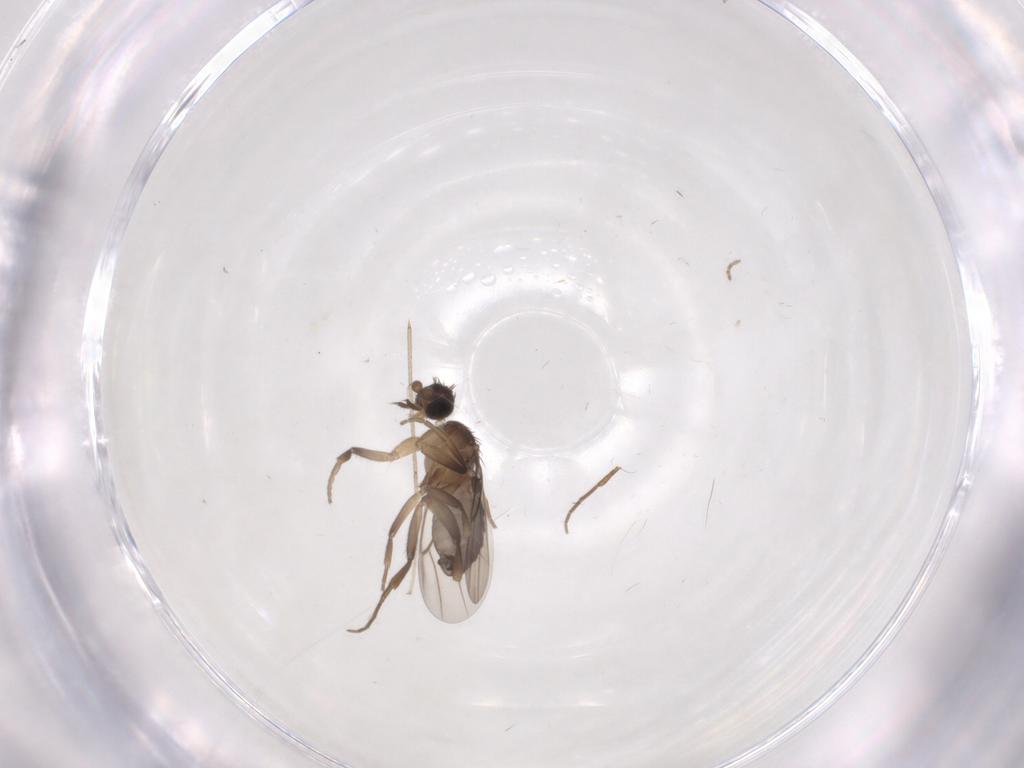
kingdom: Animalia
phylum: Arthropoda
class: Insecta
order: Diptera
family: Phoridae
